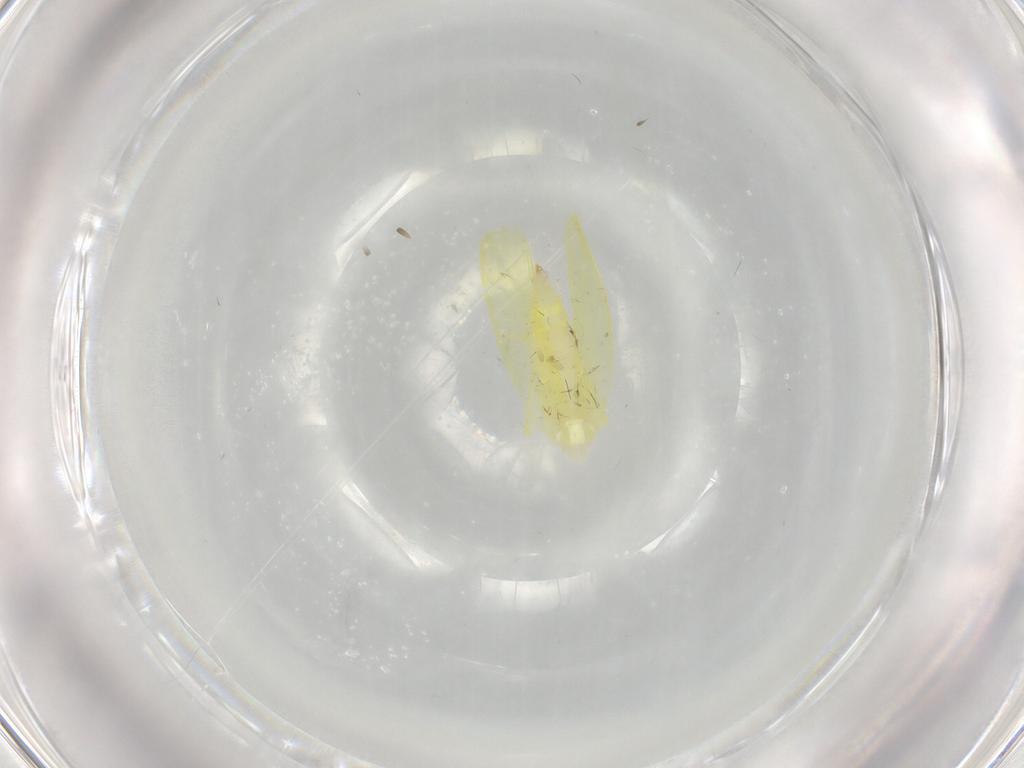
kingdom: Animalia
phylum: Arthropoda
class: Insecta
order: Hemiptera
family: Cicadellidae
